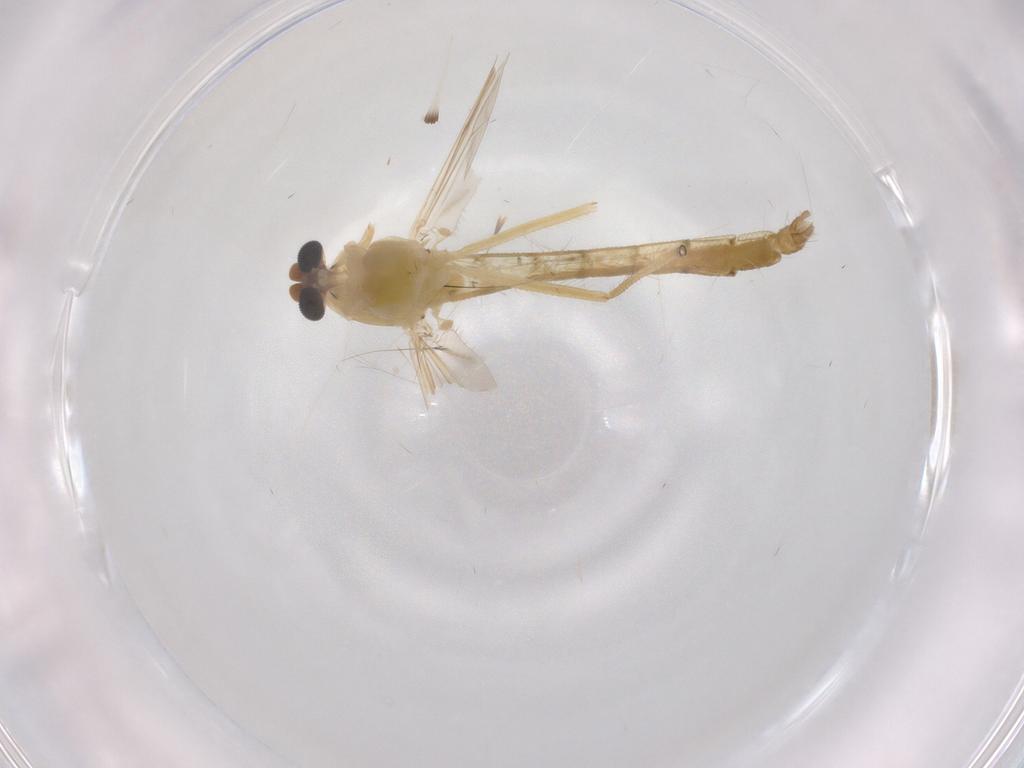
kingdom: Animalia
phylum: Arthropoda
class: Insecta
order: Diptera
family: Chironomidae
